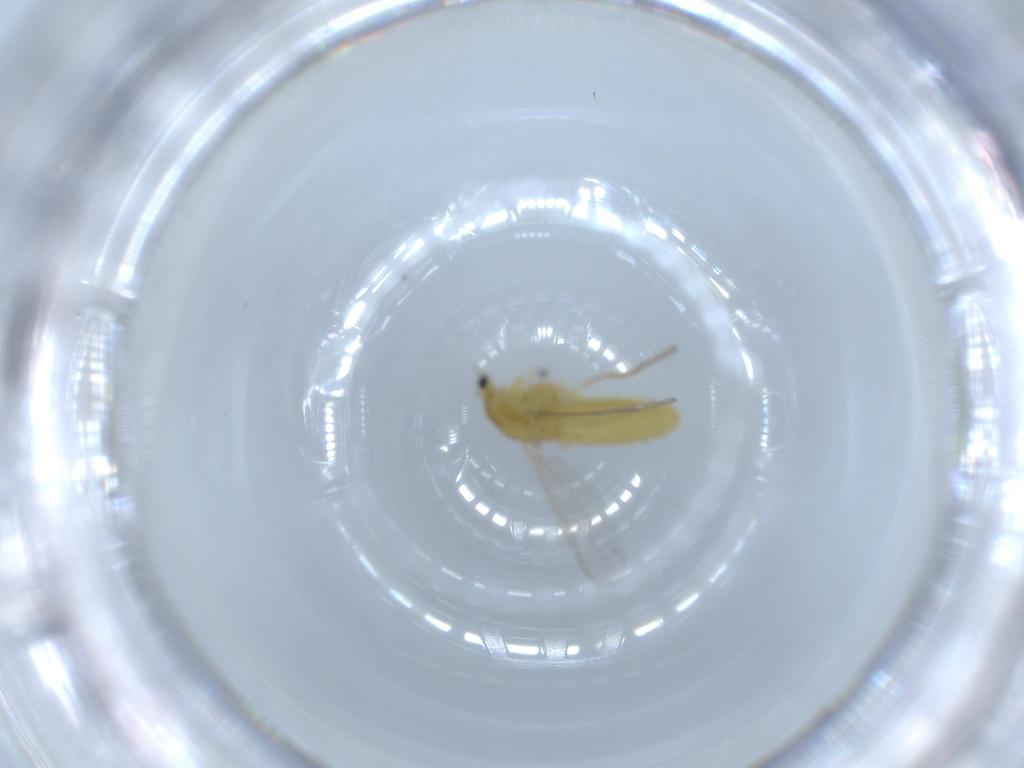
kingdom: Animalia
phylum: Arthropoda
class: Insecta
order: Diptera
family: Chironomidae
